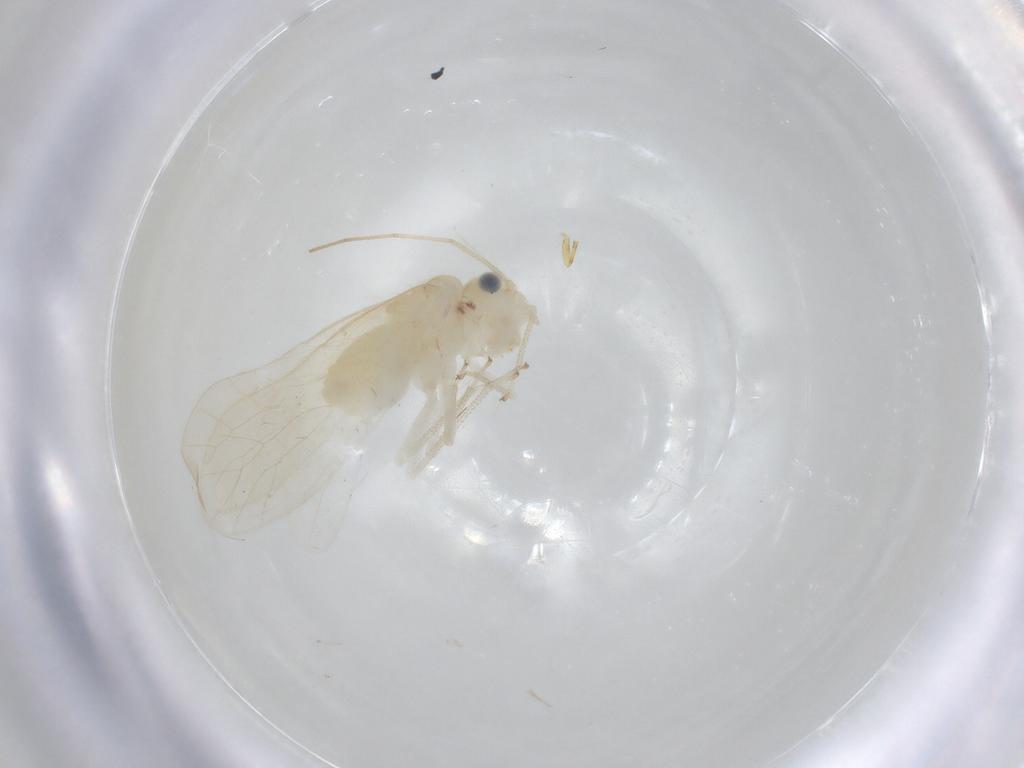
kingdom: Animalia
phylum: Arthropoda
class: Insecta
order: Psocodea
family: Caeciliusidae
